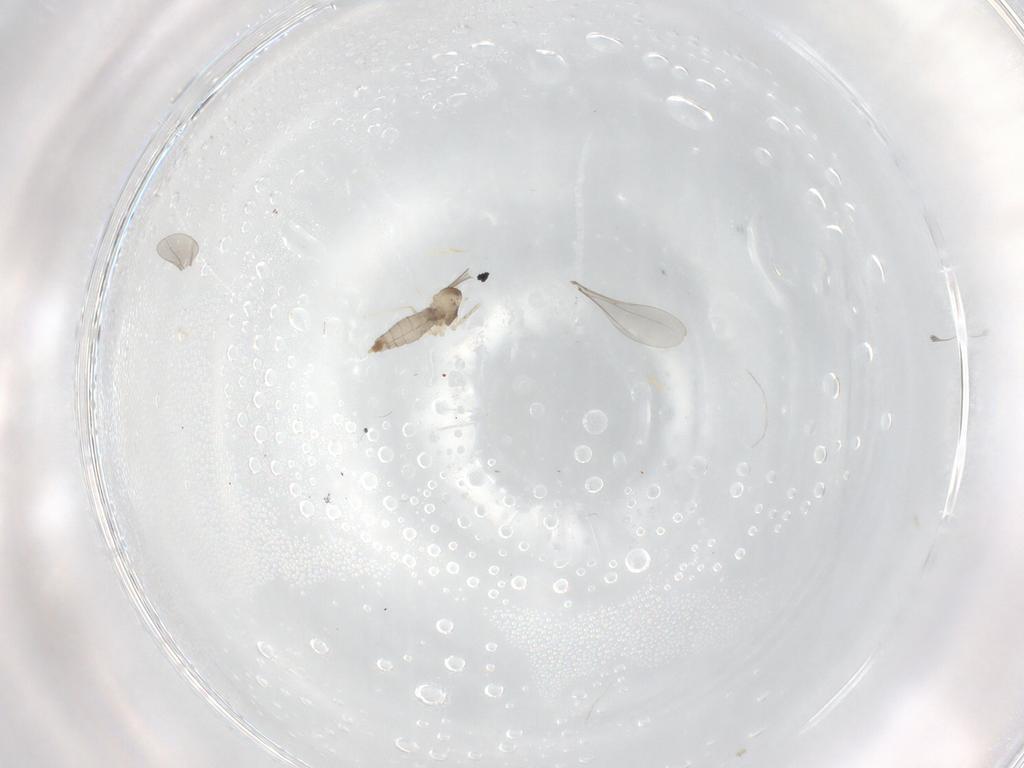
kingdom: Animalia
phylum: Arthropoda
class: Insecta
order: Diptera
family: Ceratopogonidae
